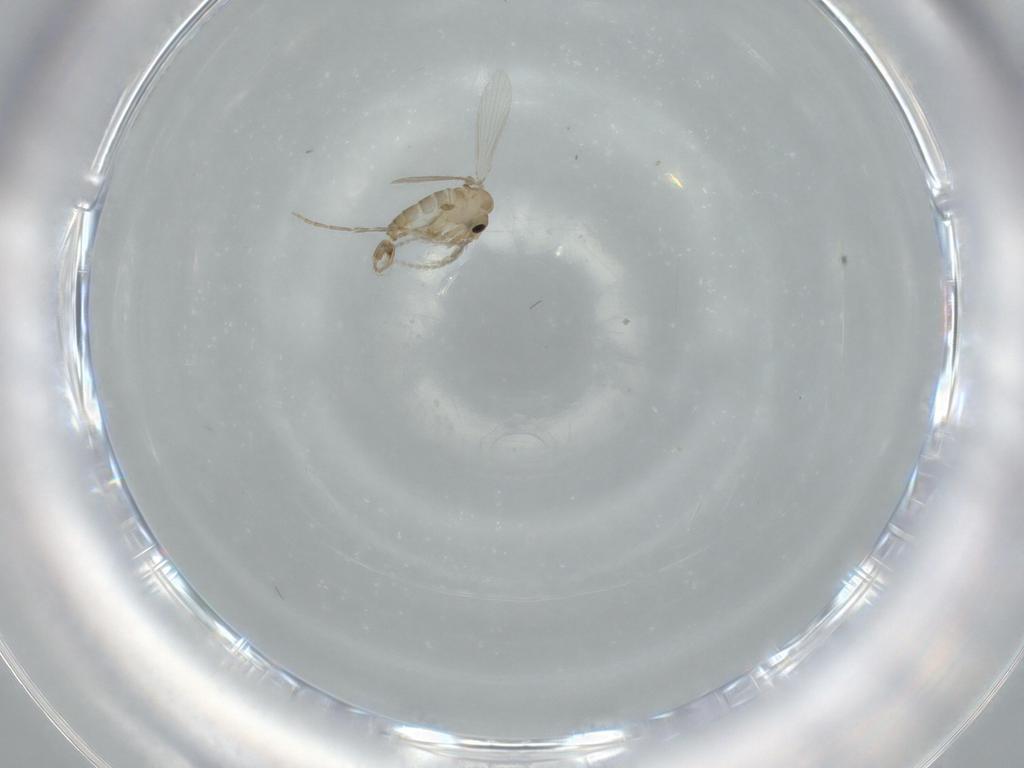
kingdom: Animalia
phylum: Arthropoda
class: Insecta
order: Diptera
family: Psychodidae
